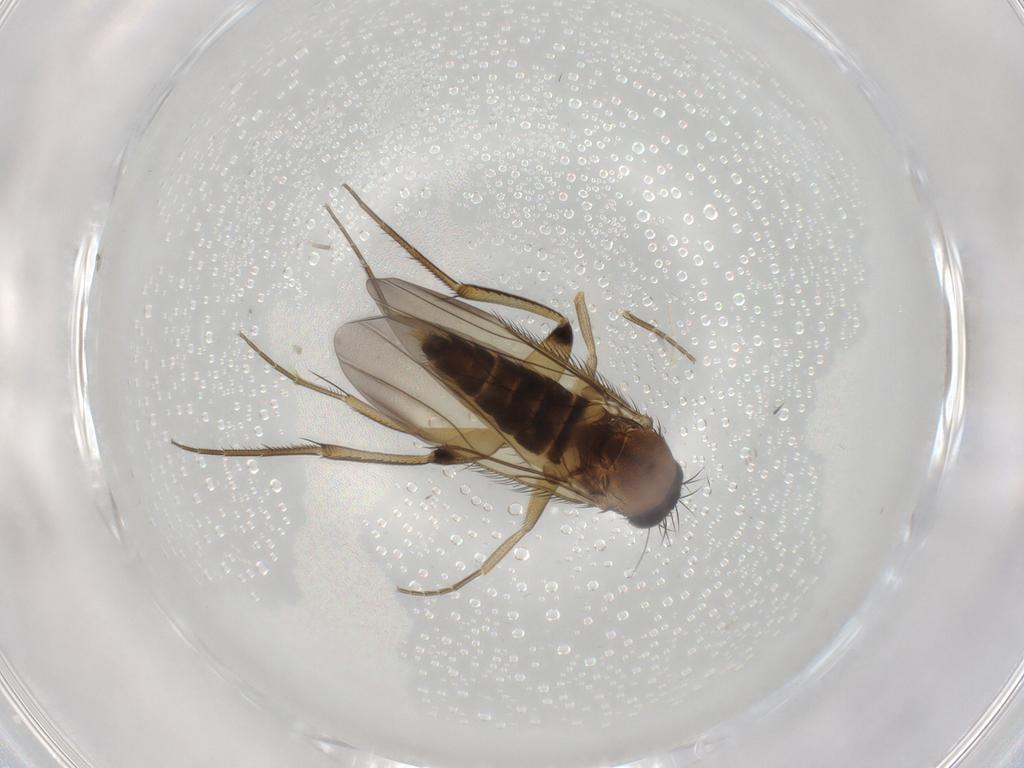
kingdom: Animalia
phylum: Arthropoda
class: Insecta
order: Diptera
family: Phoridae
